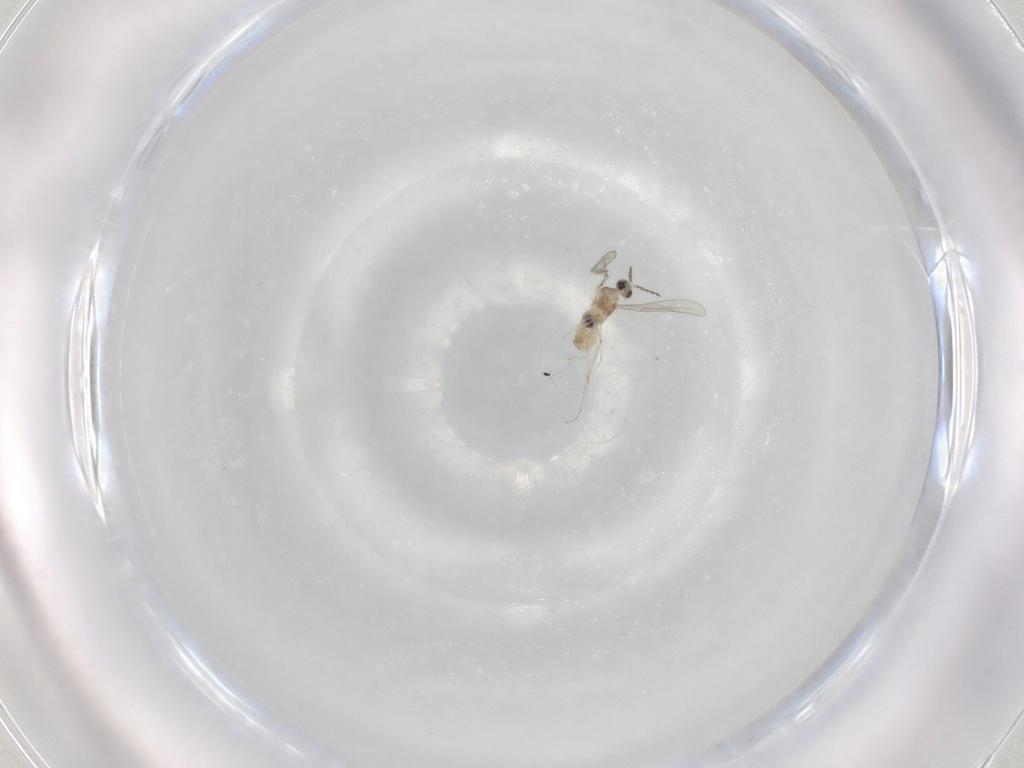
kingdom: Animalia
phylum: Arthropoda
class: Insecta
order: Diptera
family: Cecidomyiidae
